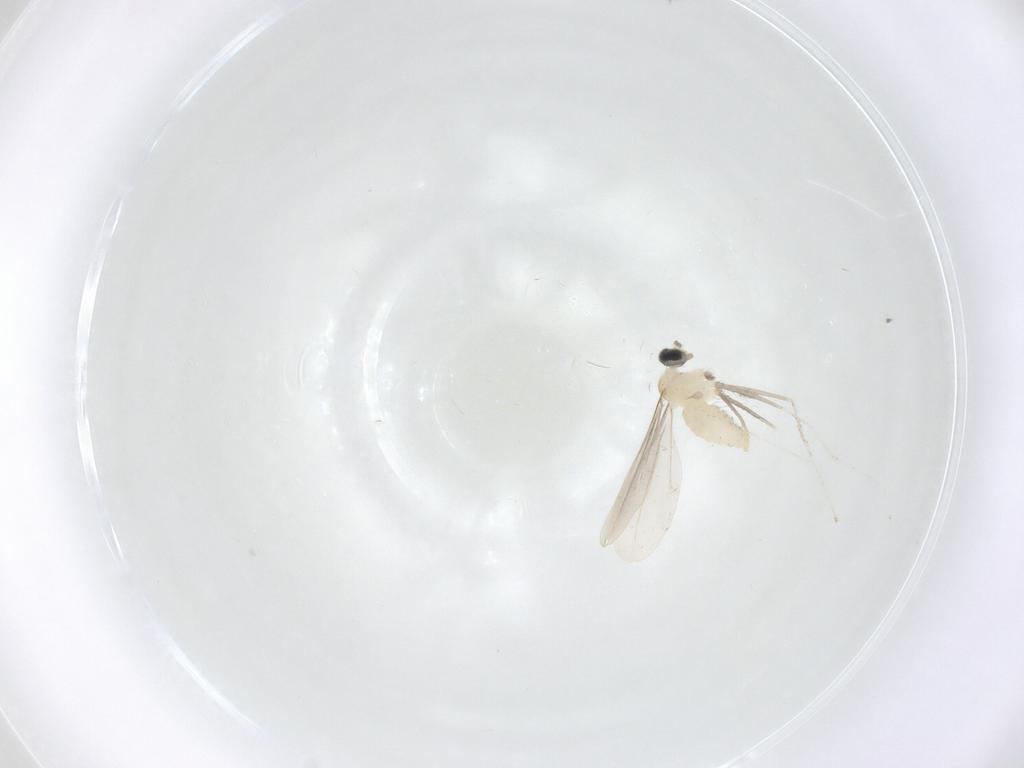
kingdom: Animalia
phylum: Arthropoda
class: Insecta
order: Diptera
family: Cecidomyiidae
